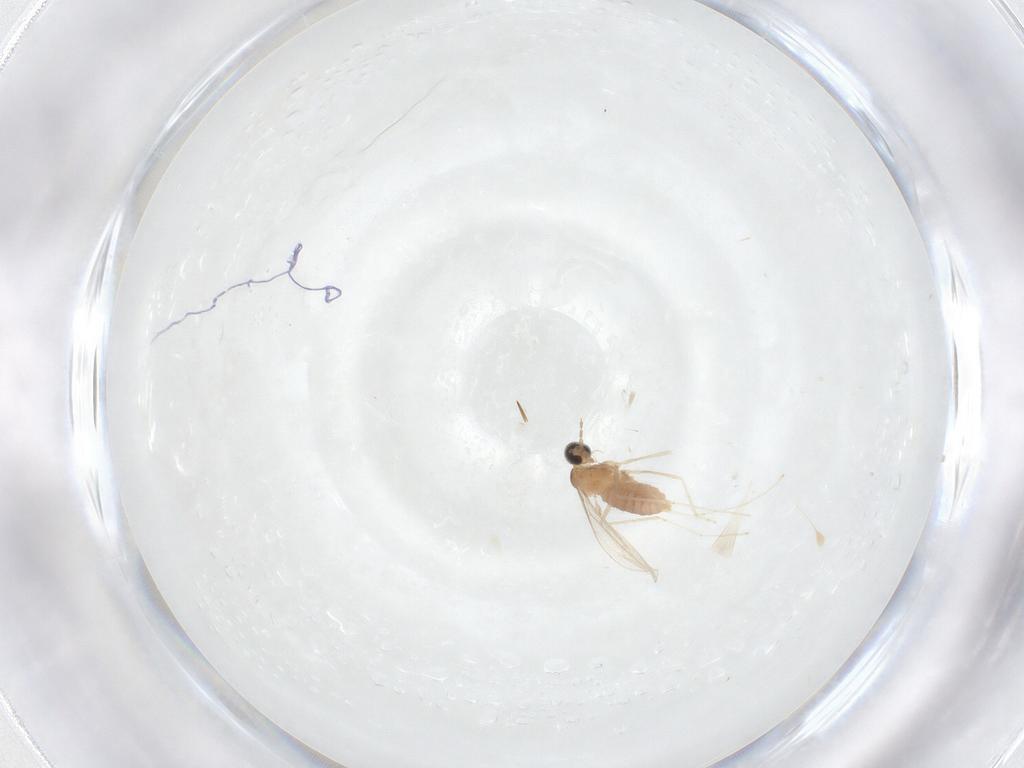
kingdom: Animalia
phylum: Arthropoda
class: Insecta
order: Diptera
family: Cecidomyiidae
